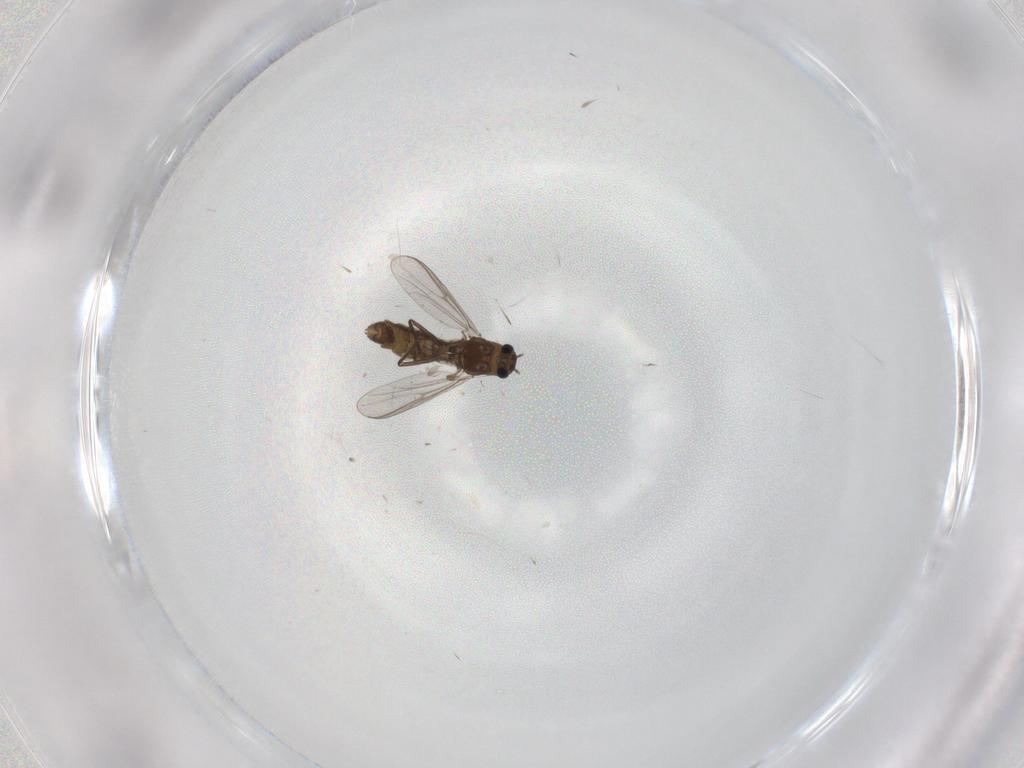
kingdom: Animalia
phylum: Arthropoda
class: Insecta
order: Diptera
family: Chironomidae
